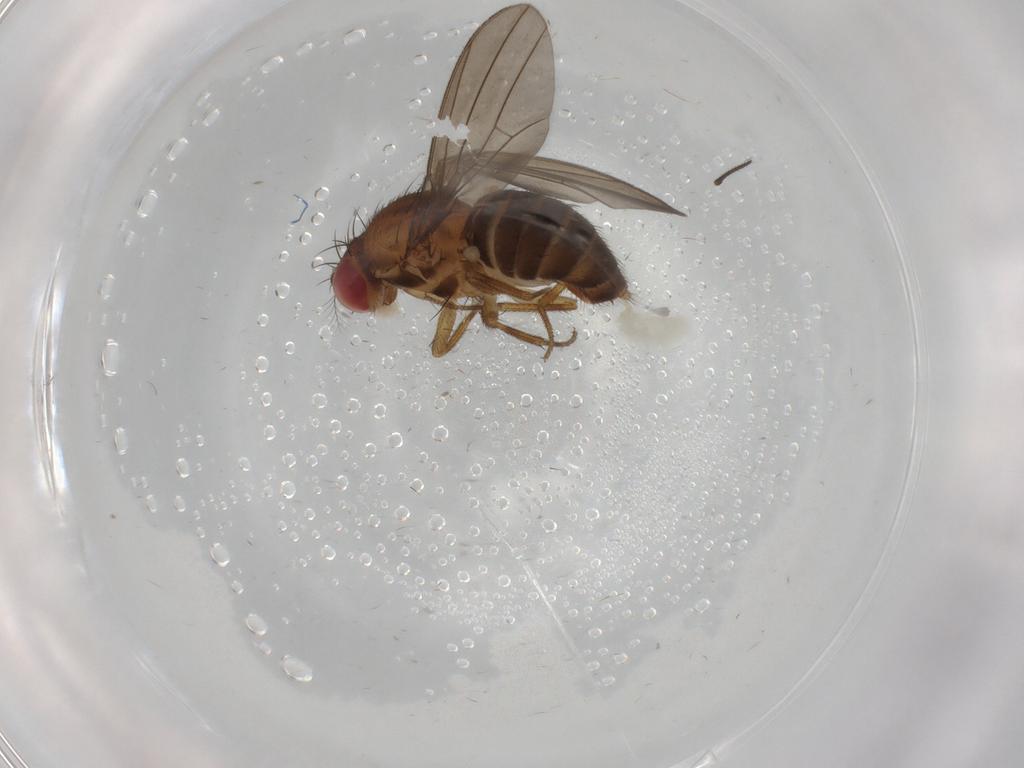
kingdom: Animalia
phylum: Arthropoda
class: Insecta
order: Diptera
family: Drosophilidae
